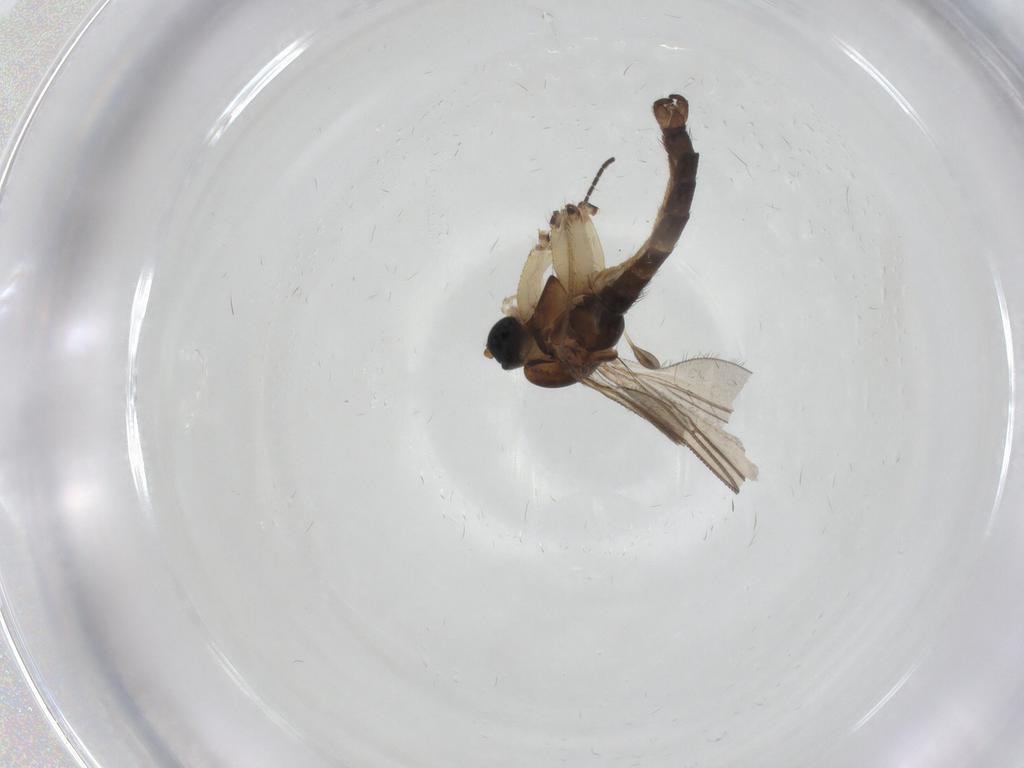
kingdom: Animalia
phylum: Arthropoda
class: Insecta
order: Diptera
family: Sciaridae
